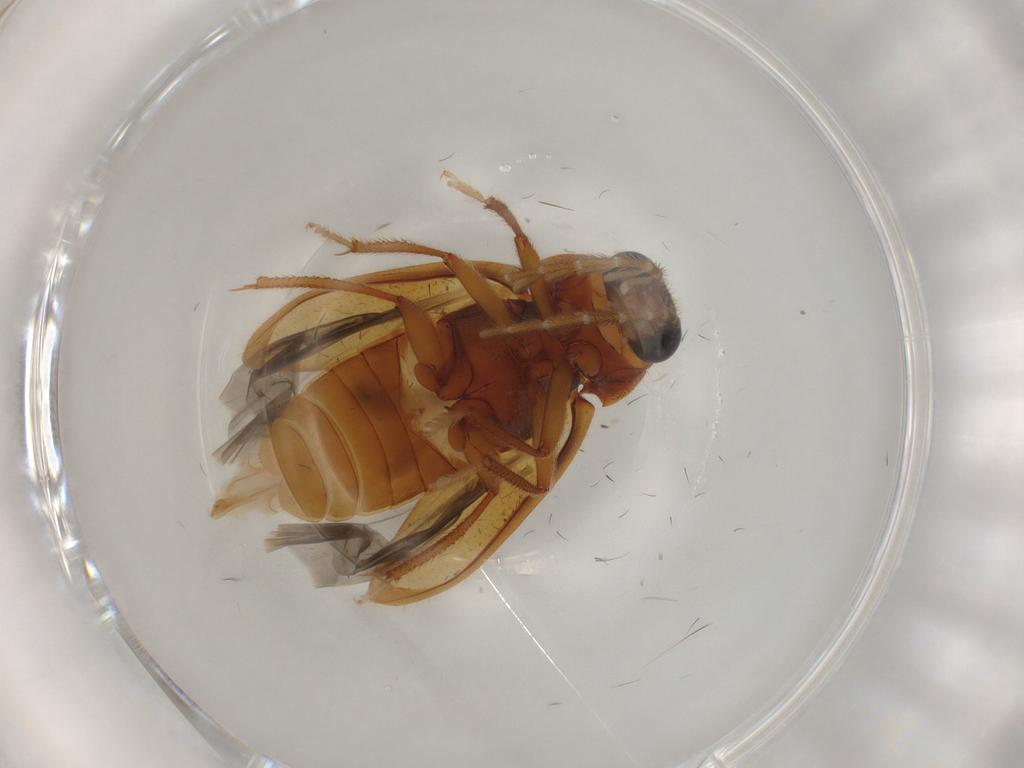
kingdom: Animalia
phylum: Arthropoda
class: Insecta
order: Coleoptera
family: Ptilodactylidae
